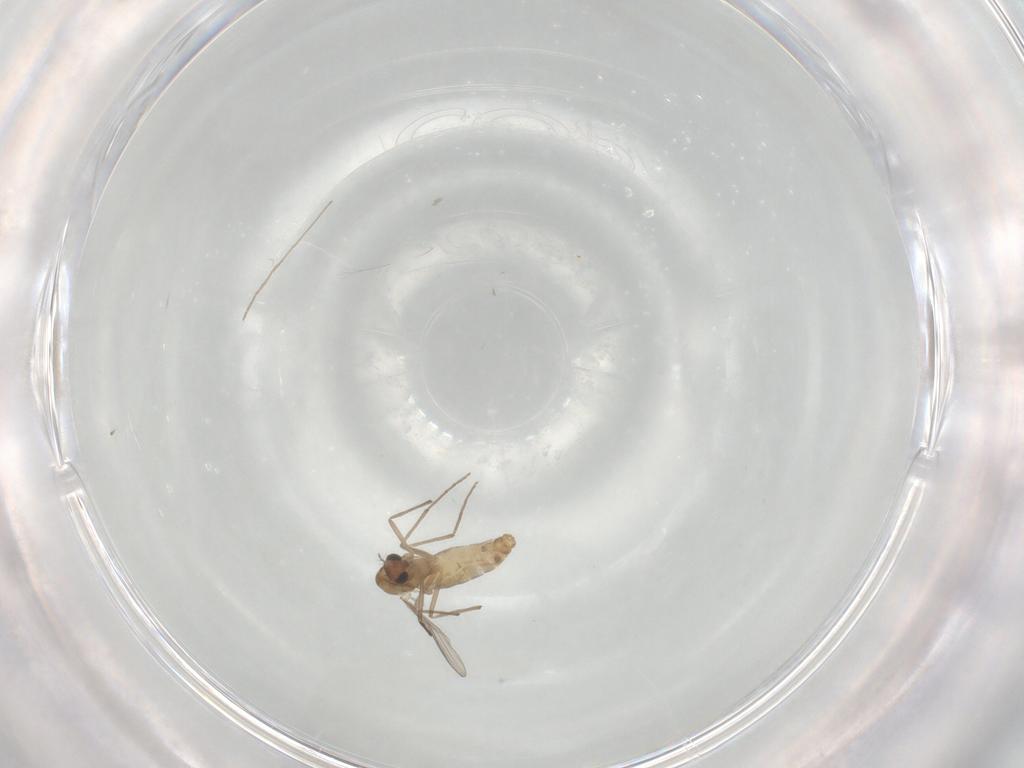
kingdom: Animalia
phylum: Arthropoda
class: Insecta
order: Diptera
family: Chironomidae
